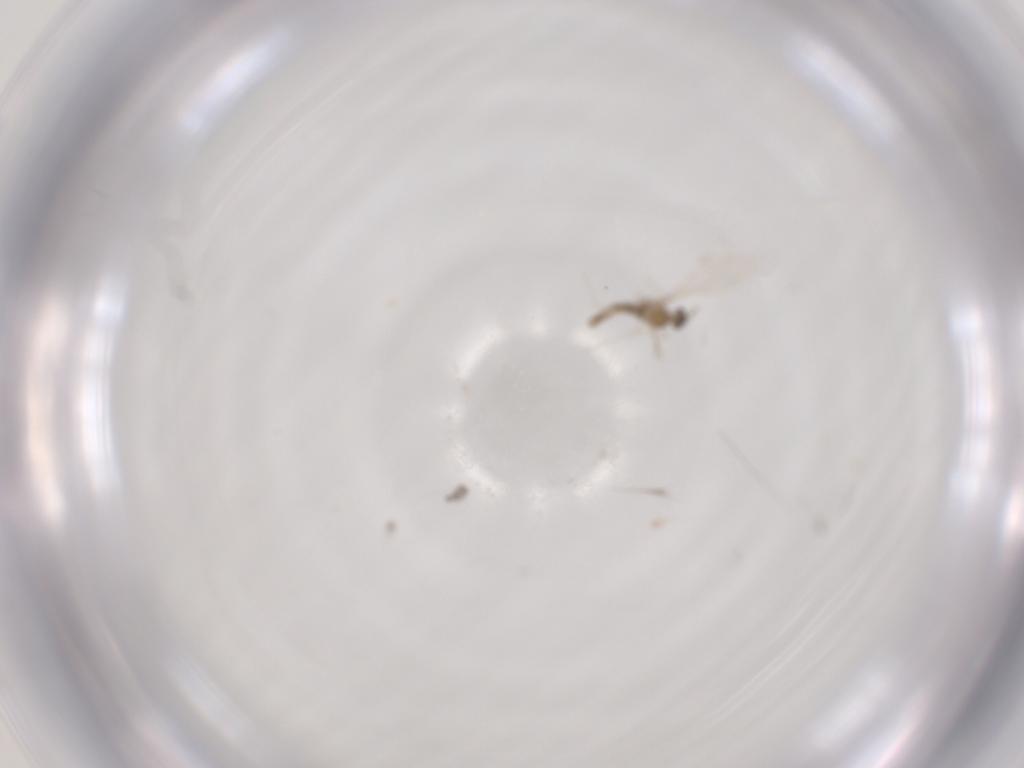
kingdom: Animalia
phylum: Arthropoda
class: Insecta
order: Diptera
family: Sciaridae
